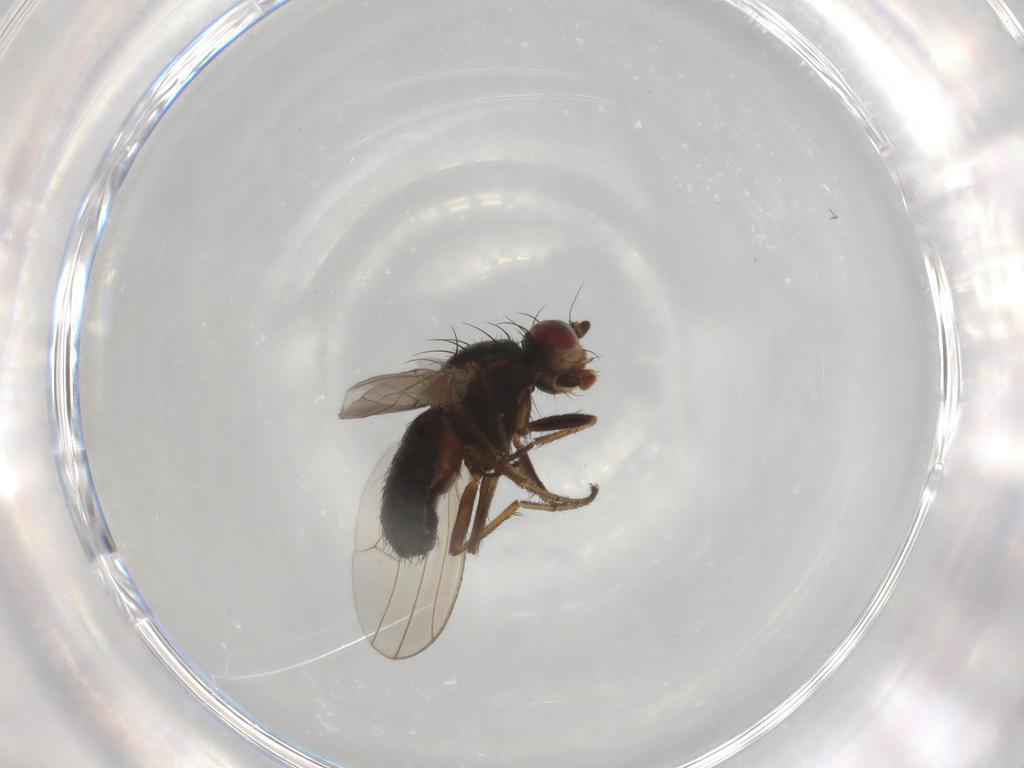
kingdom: Animalia
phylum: Arthropoda
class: Insecta
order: Diptera
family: Heleomyzidae
